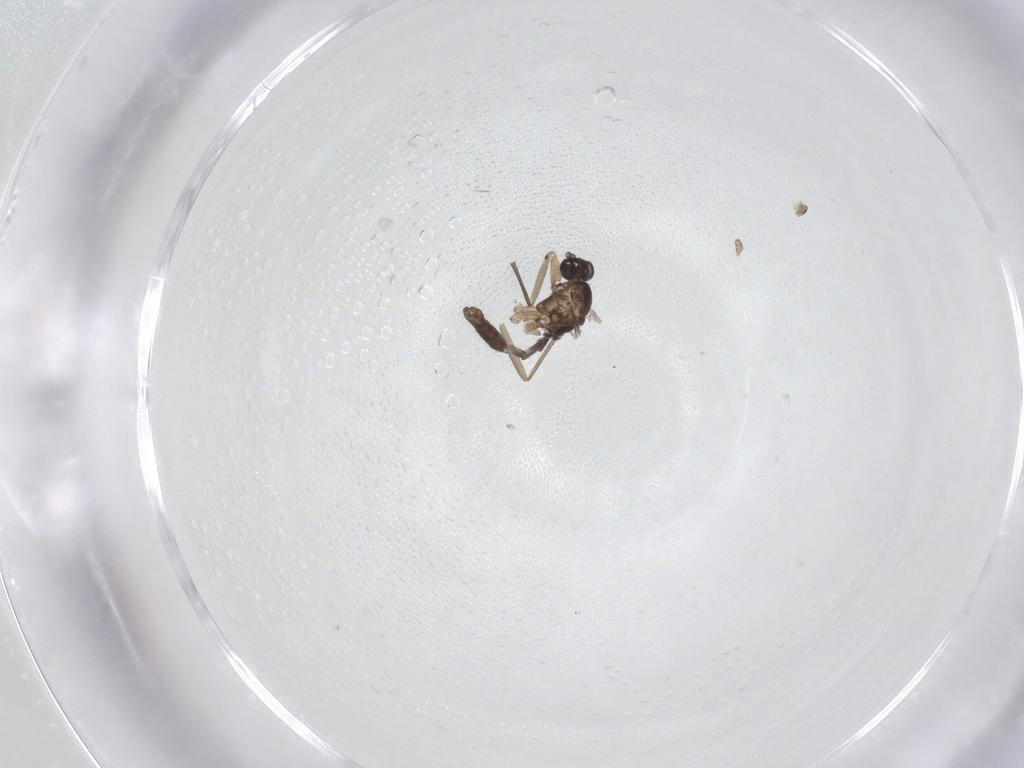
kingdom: Animalia
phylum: Arthropoda
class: Insecta
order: Diptera
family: Sciaridae
